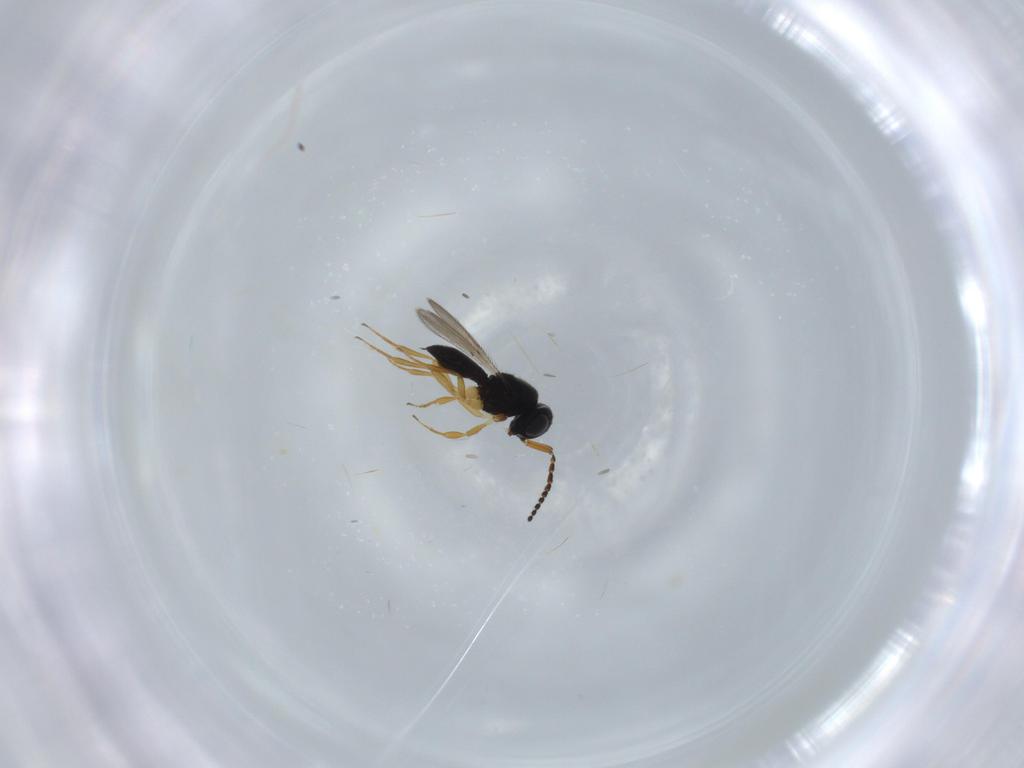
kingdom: Animalia
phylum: Arthropoda
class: Insecta
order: Hymenoptera
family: Scelionidae
